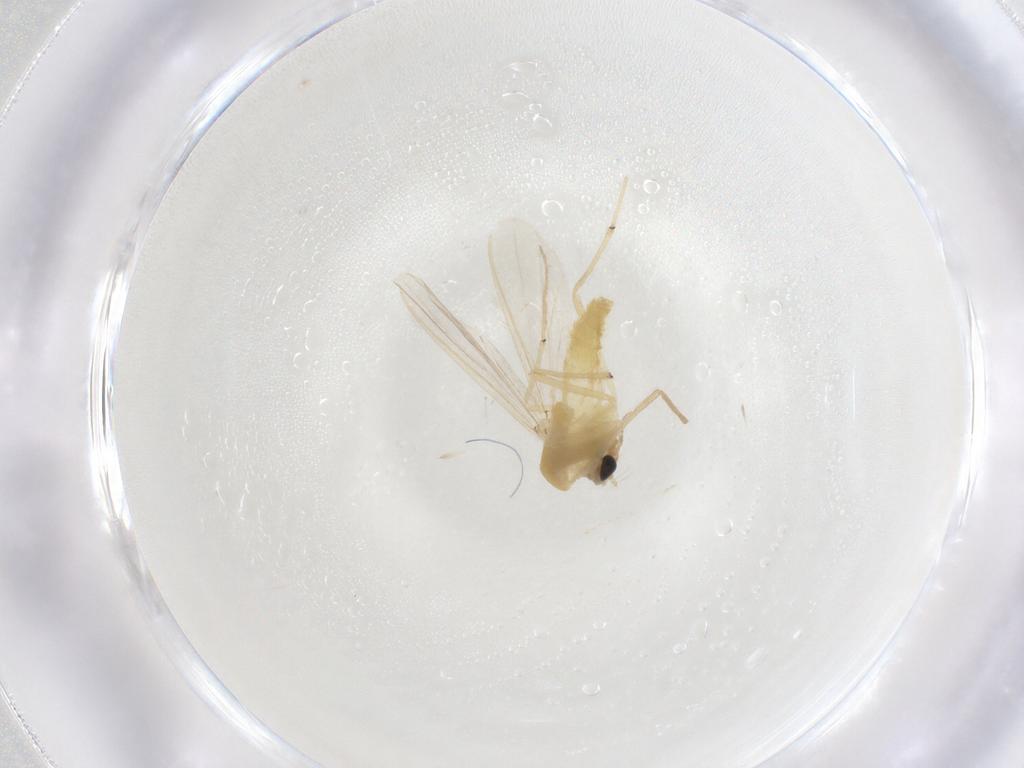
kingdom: Animalia
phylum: Arthropoda
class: Insecta
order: Diptera
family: Chironomidae
